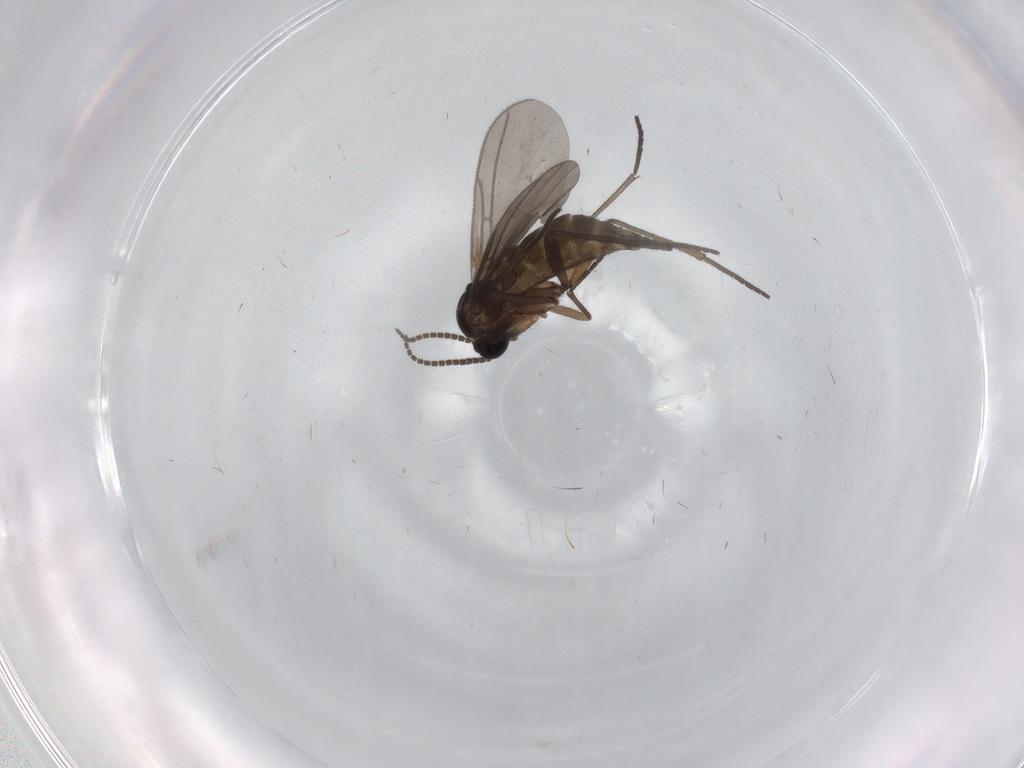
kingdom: Animalia
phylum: Arthropoda
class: Insecta
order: Diptera
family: Sciaridae
